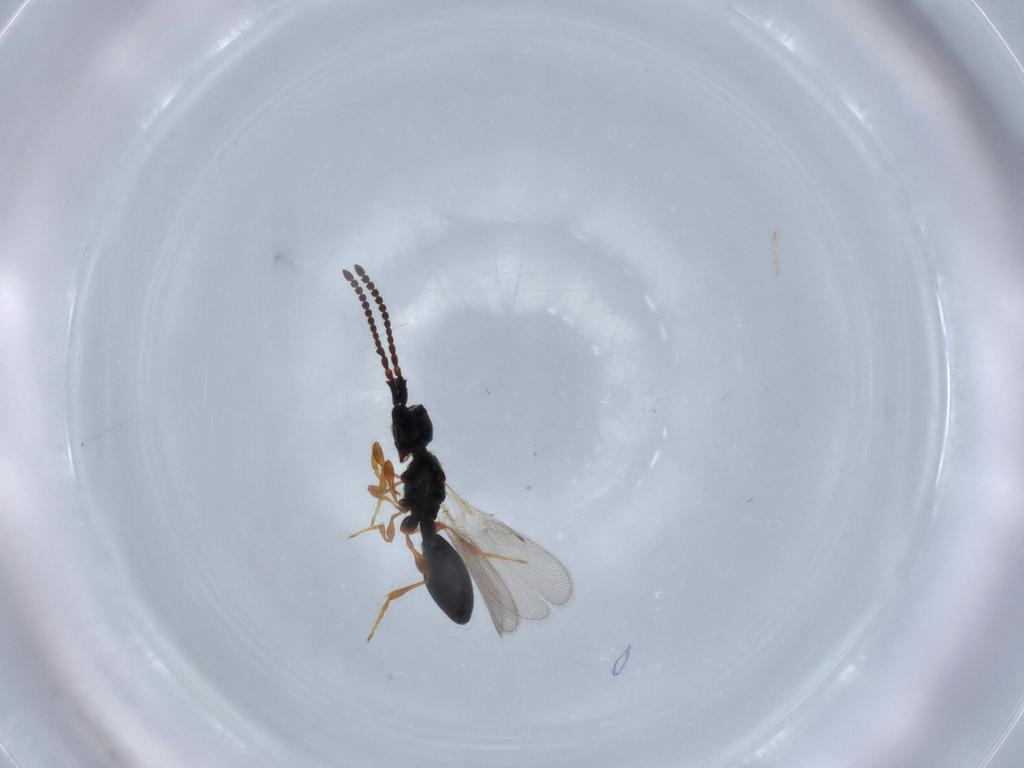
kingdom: Animalia
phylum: Arthropoda
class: Insecta
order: Hymenoptera
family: Diapriidae
